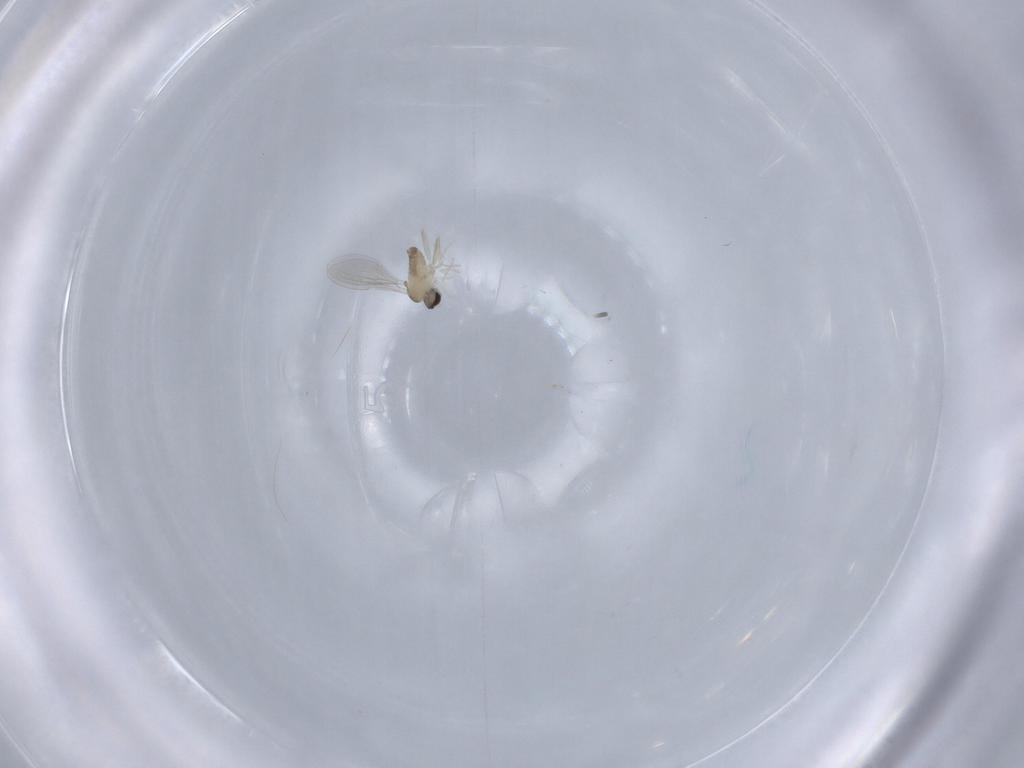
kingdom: Animalia
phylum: Arthropoda
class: Insecta
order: Diptera
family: Cecidomyiidae
